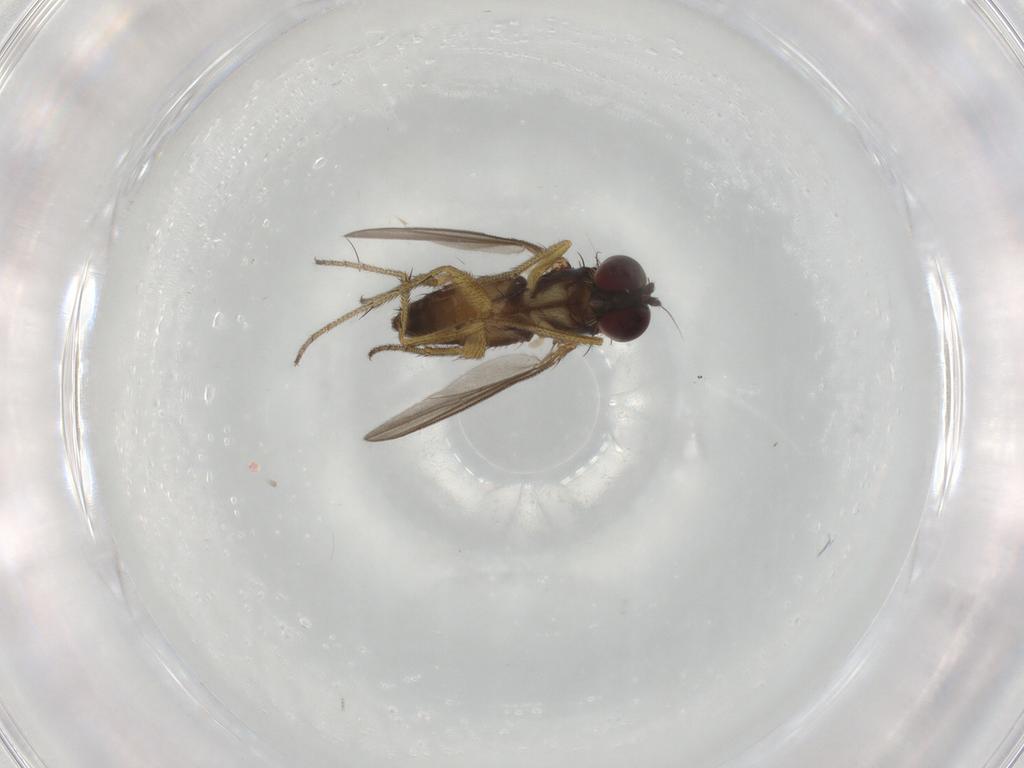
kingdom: Animalia
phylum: Arthropoda
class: Insecta
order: Diptera
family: Dolichopodidae
